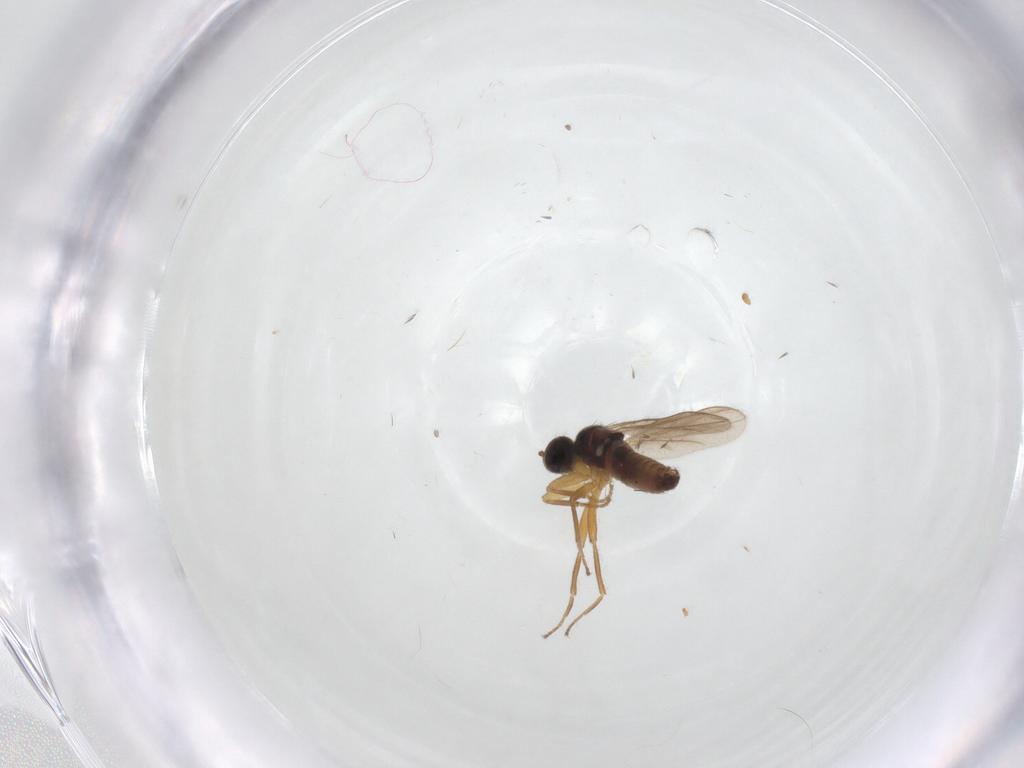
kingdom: Animalia
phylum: Arthropoda
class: Insecta
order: Diptera
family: Hybotidae
